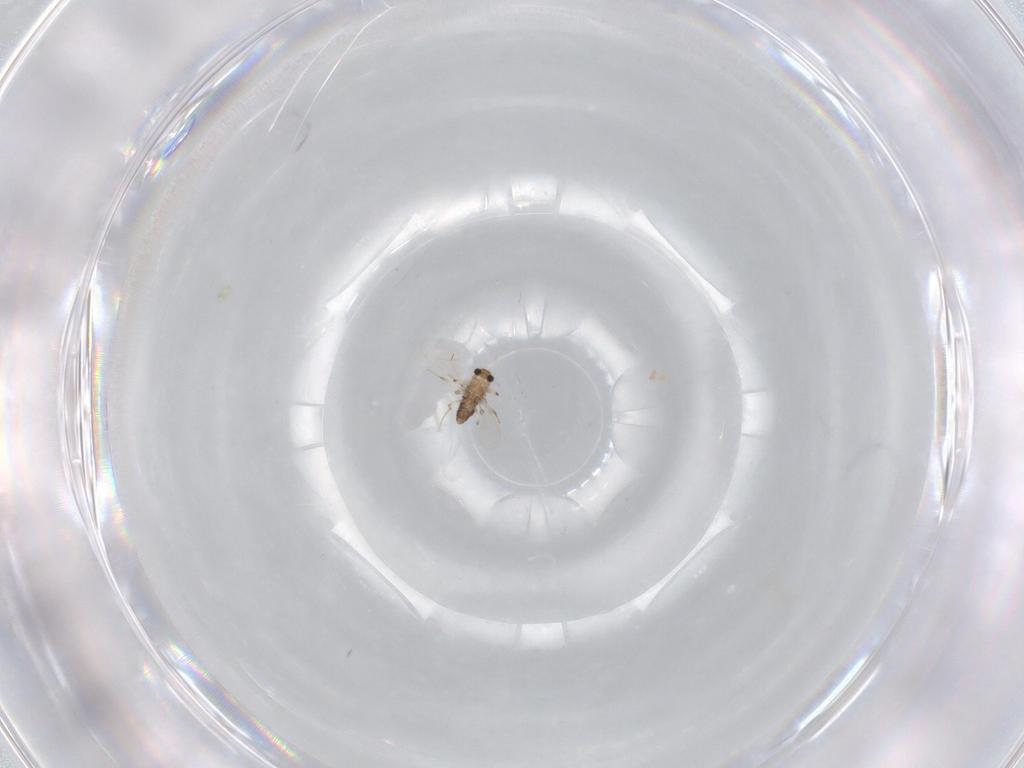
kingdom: Animalia
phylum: Arthropoda
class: Insecta
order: Diptera
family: Chironomidae
